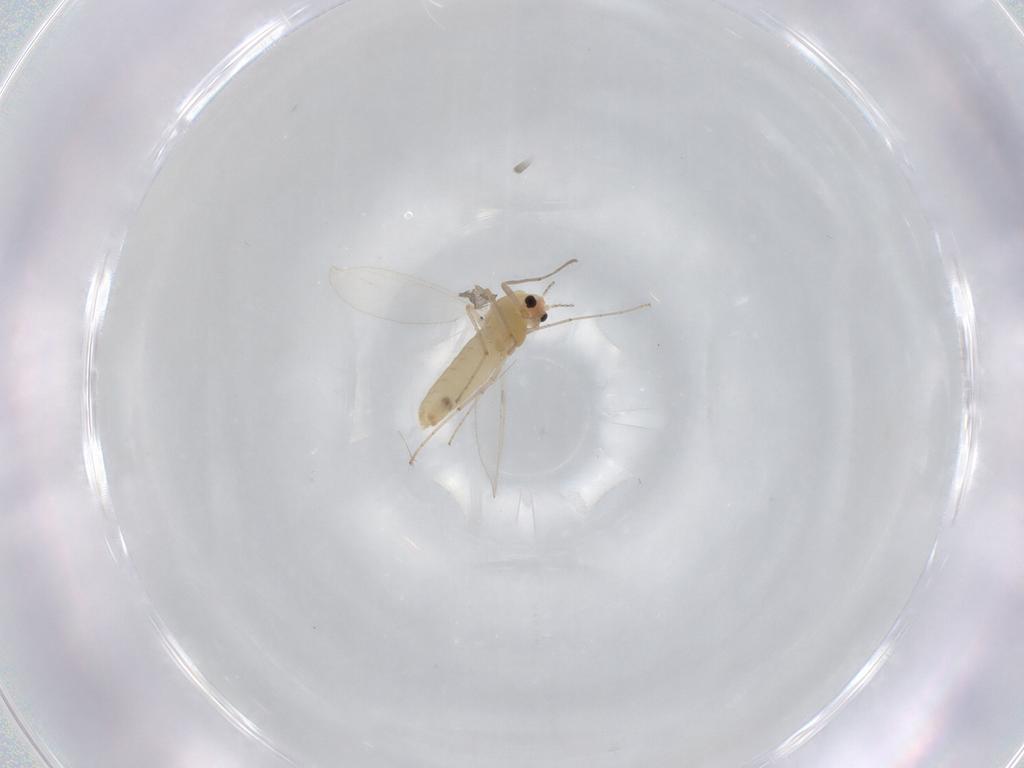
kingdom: Animalia
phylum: Arthropoda
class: Insecta
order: Diptera
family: Chironomidae
